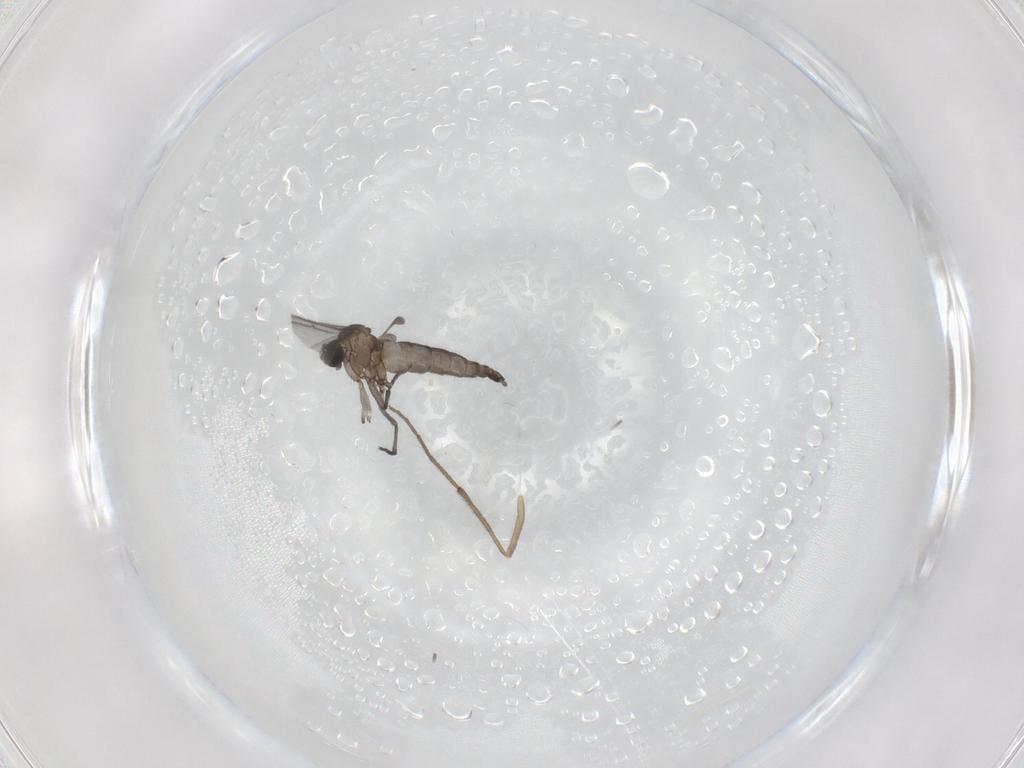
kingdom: Animalia
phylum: Arthropoda
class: Insecta
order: Diptera
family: Sciaridae
